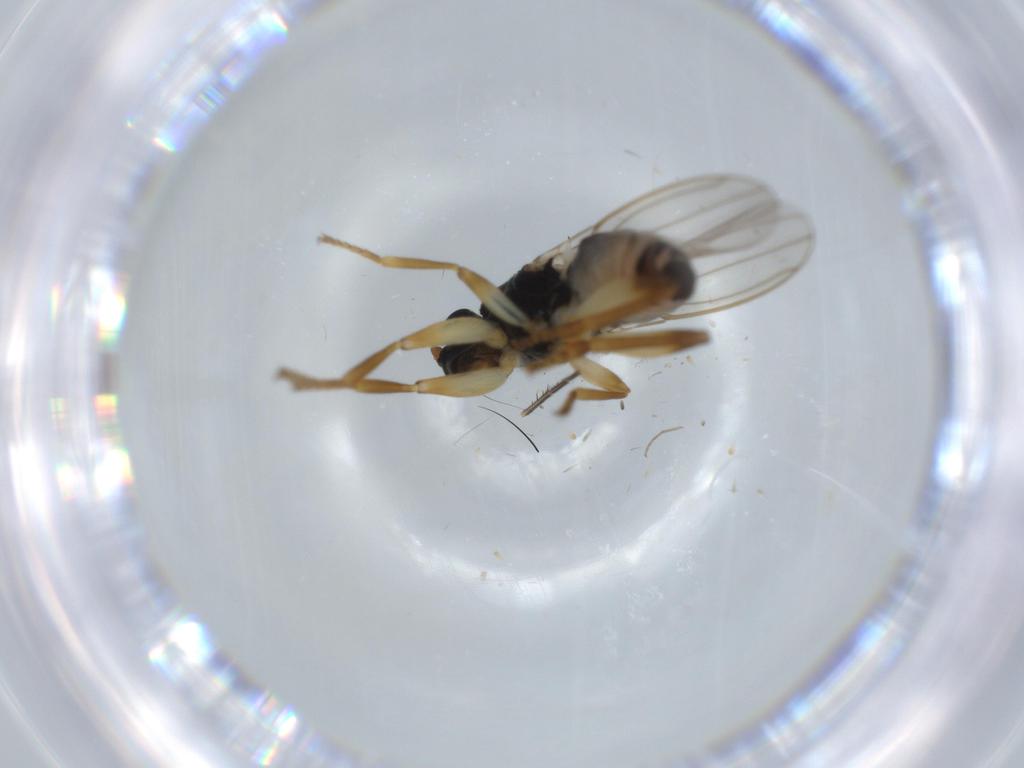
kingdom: Animalia
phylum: Arthropoda
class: Insecta
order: Diptera
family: Sphaeroceridae
